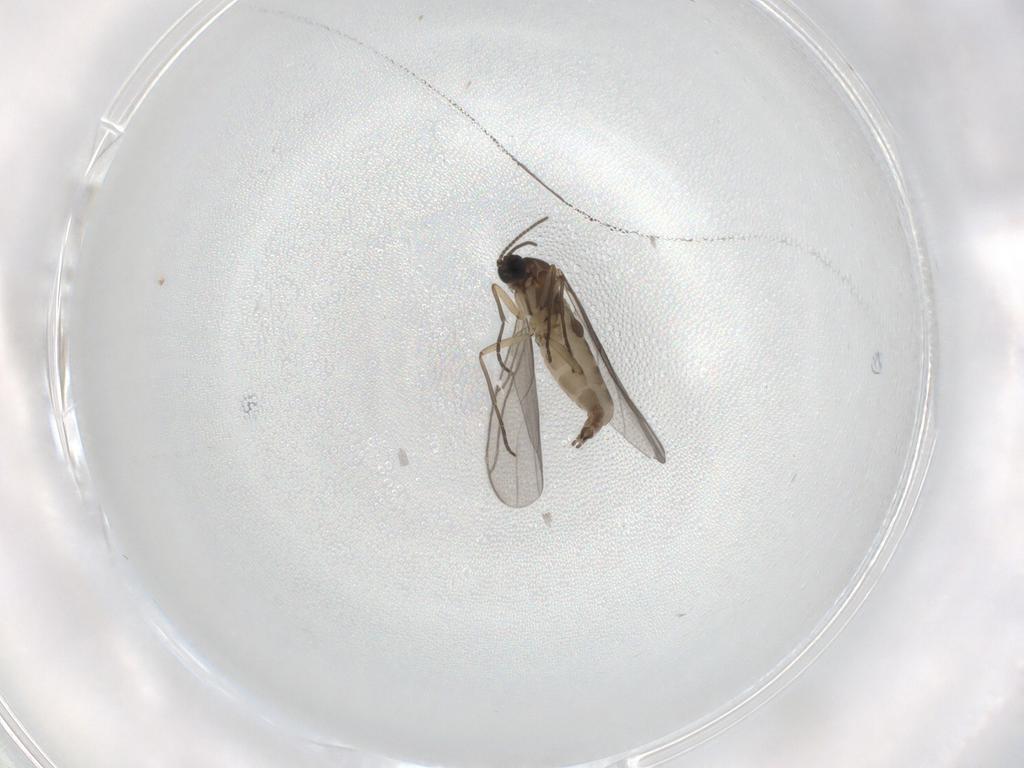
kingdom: Animalia
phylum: Arthropoda
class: Insecta
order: Diptera
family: Sciaridae
